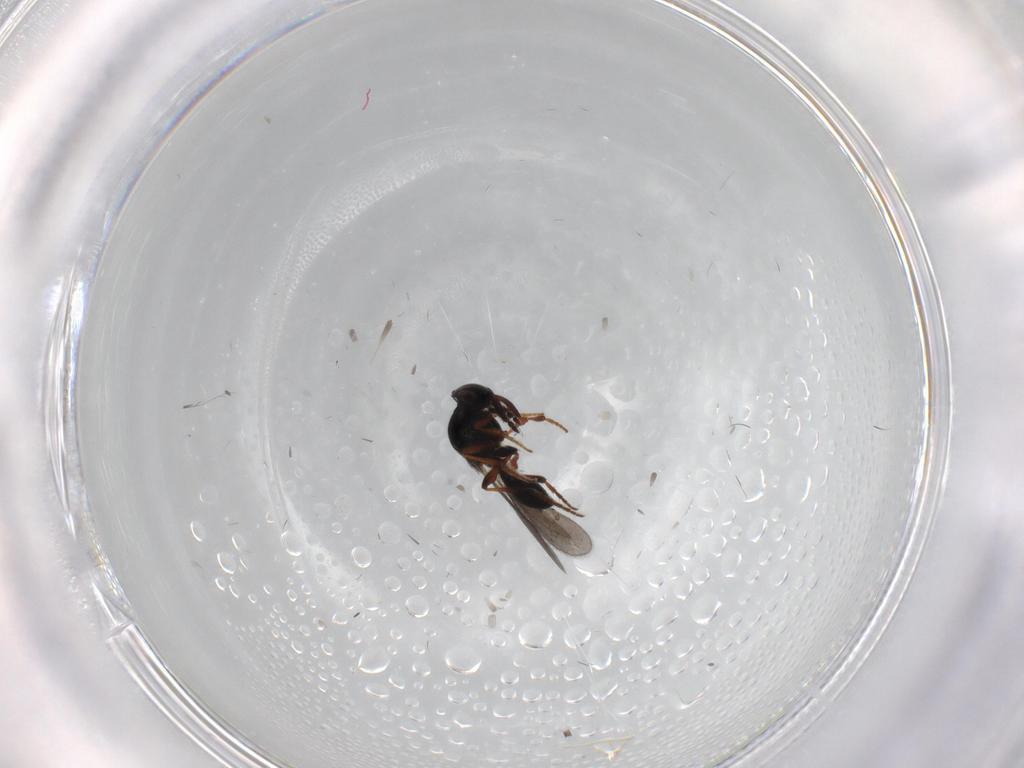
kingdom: Animalia
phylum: Arthropoda
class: Insecta
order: Hymenoptera
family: Platygastridae
